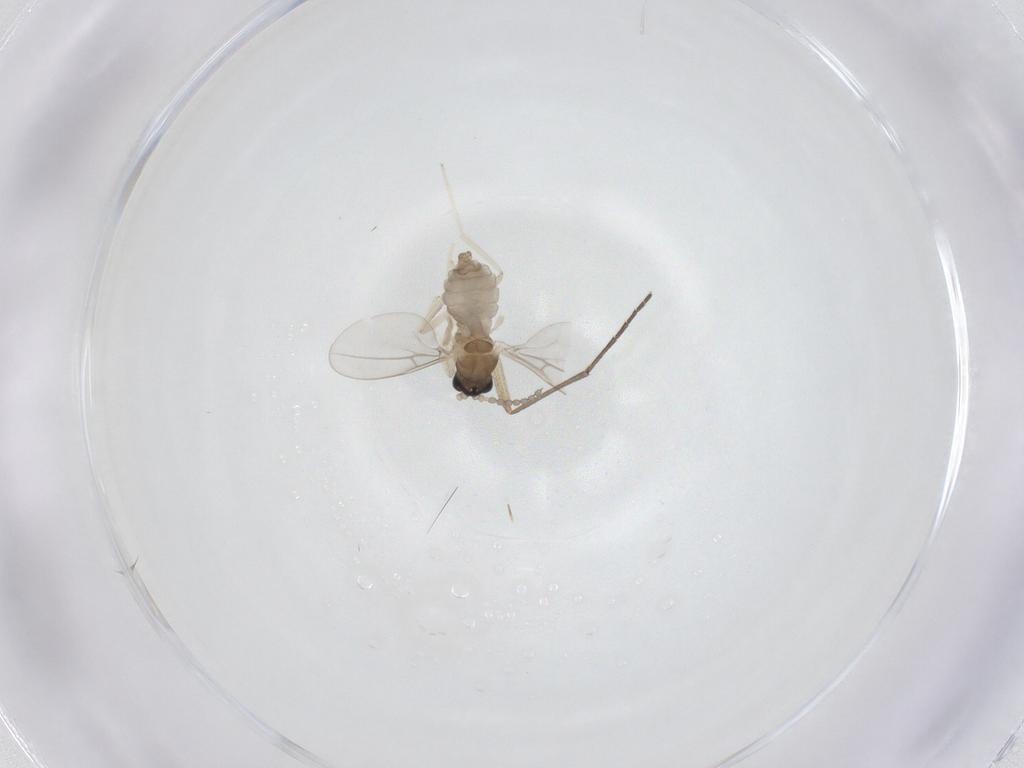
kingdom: Animalia
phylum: Arthropoda
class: Insecta
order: Diptera
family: Cecidomyiidae
